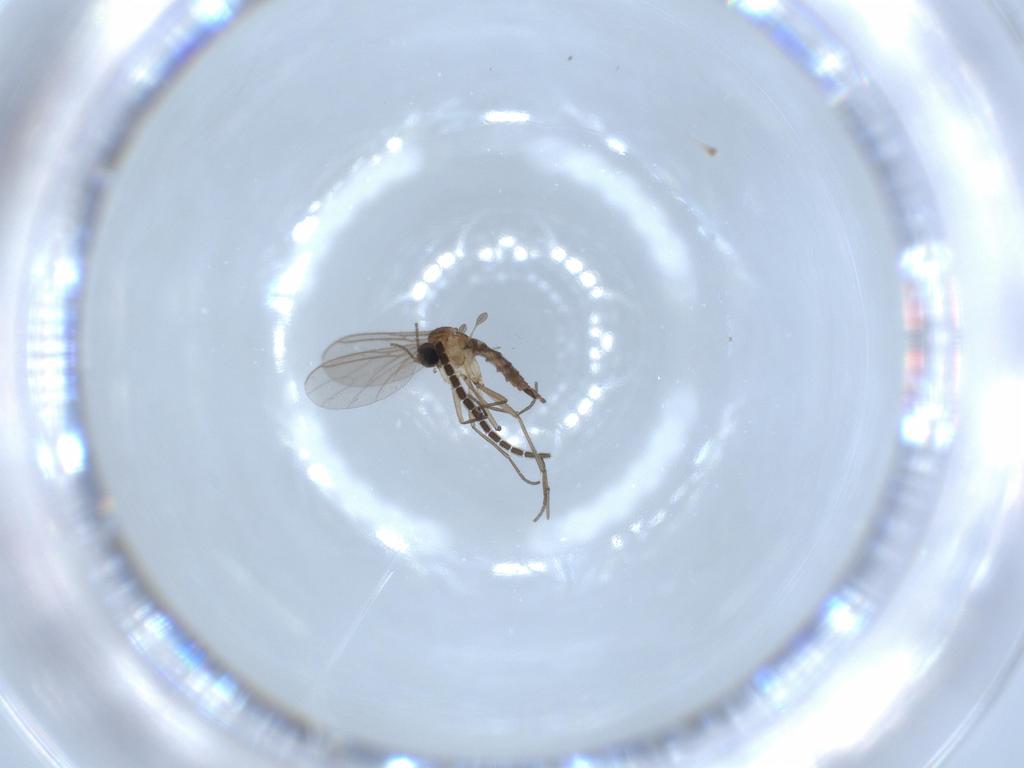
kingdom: Animalia
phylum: Arthropoda
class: Insecta
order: Diptera
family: Sciaridae
